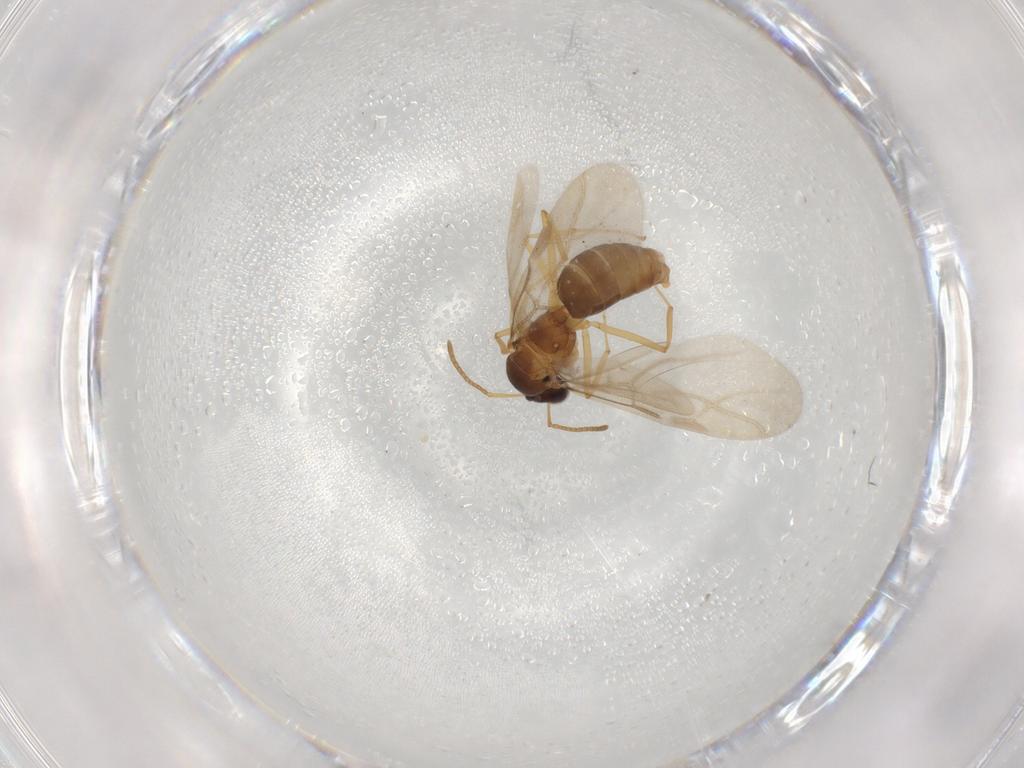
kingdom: Animalia
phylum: Arthropoda
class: Insecta
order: Hymenoptera
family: Formicidae
